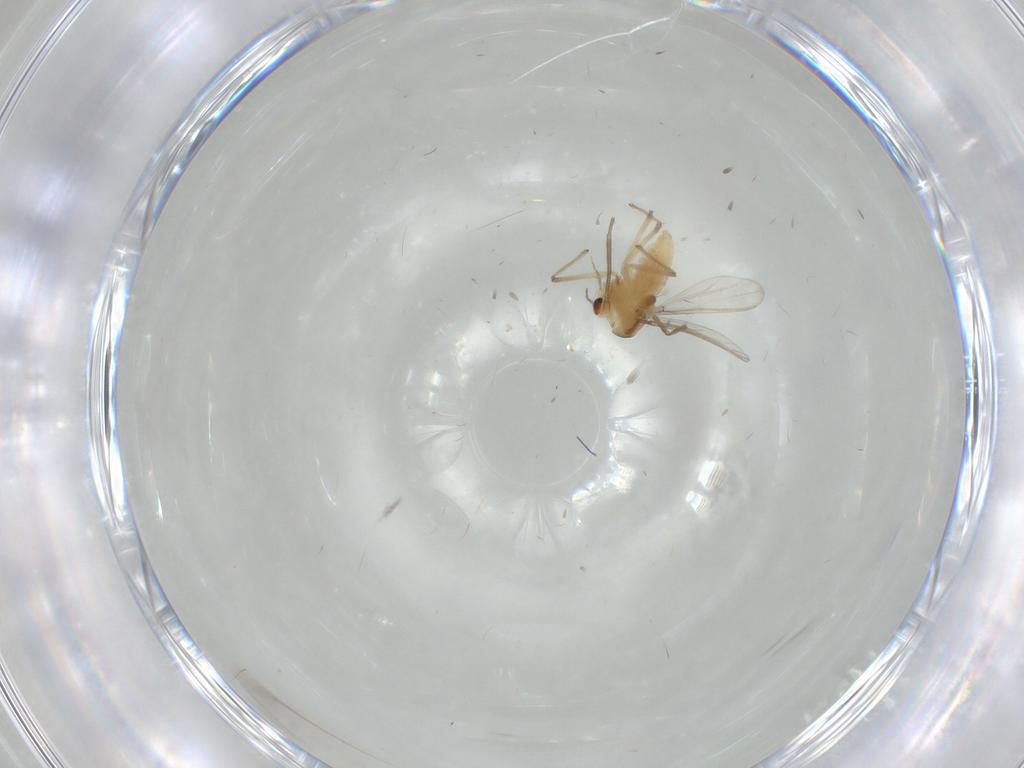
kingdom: Animalia
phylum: Arthropoda
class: Insecta
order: Diptera
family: Chironomidae
